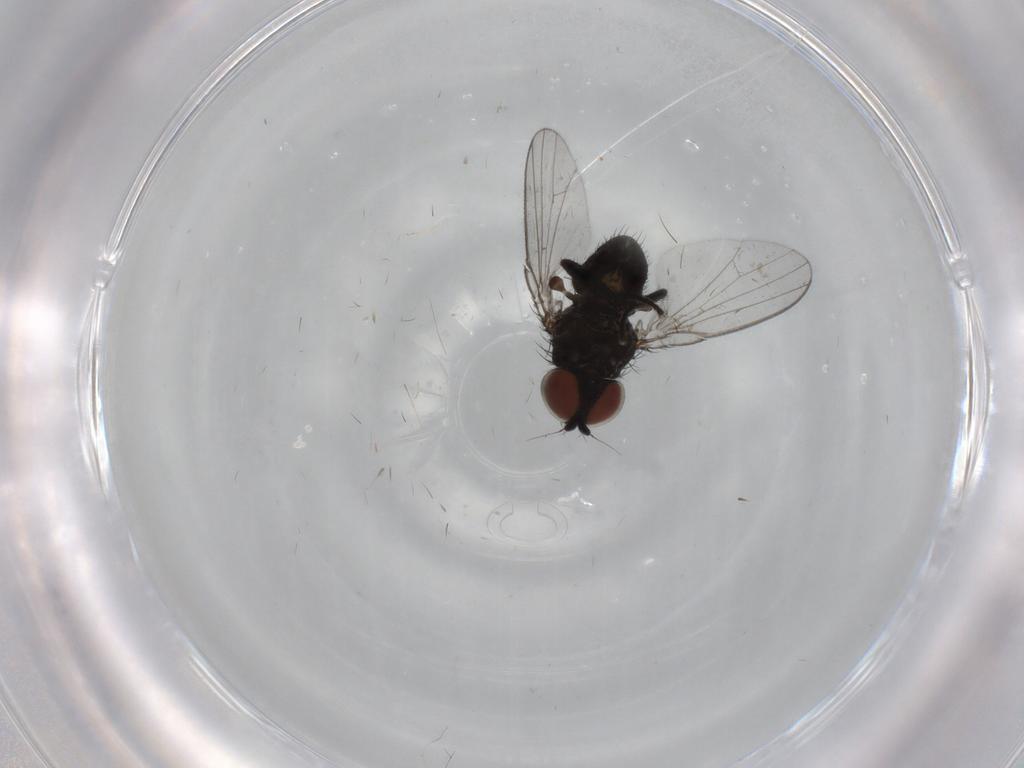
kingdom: Animalia
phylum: Arthropoda
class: Insecta
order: Diptera
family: Milichiidae
